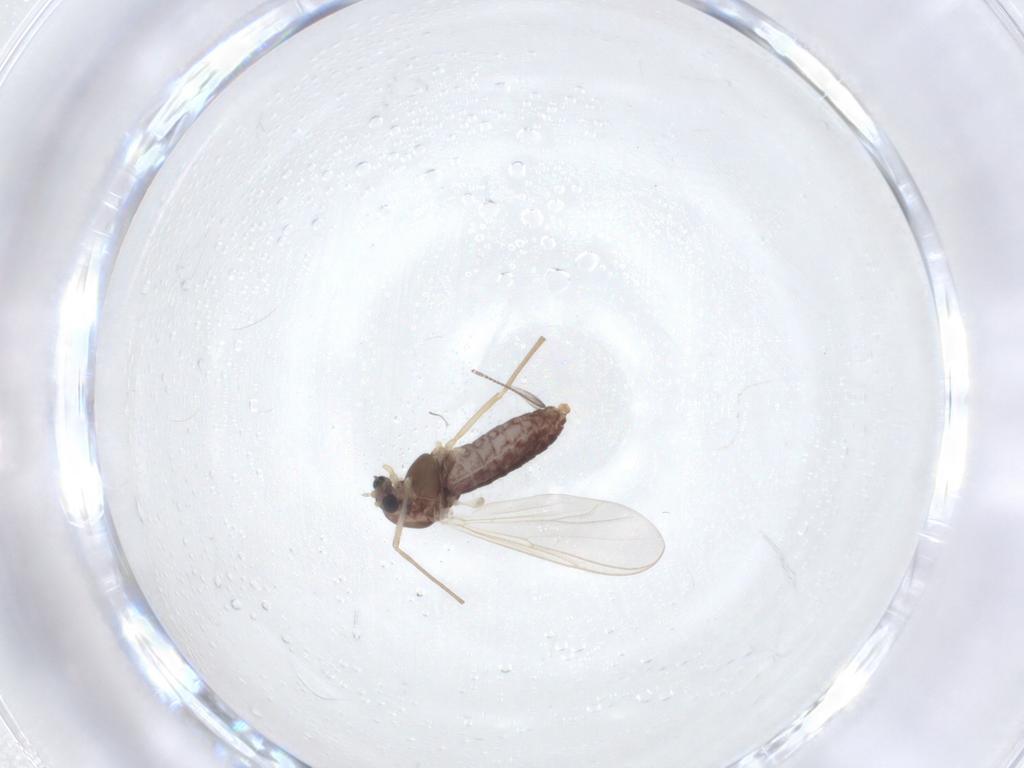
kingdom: Animalia
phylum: Arthropoda
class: Insecta
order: Diptera
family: Chironomidae
